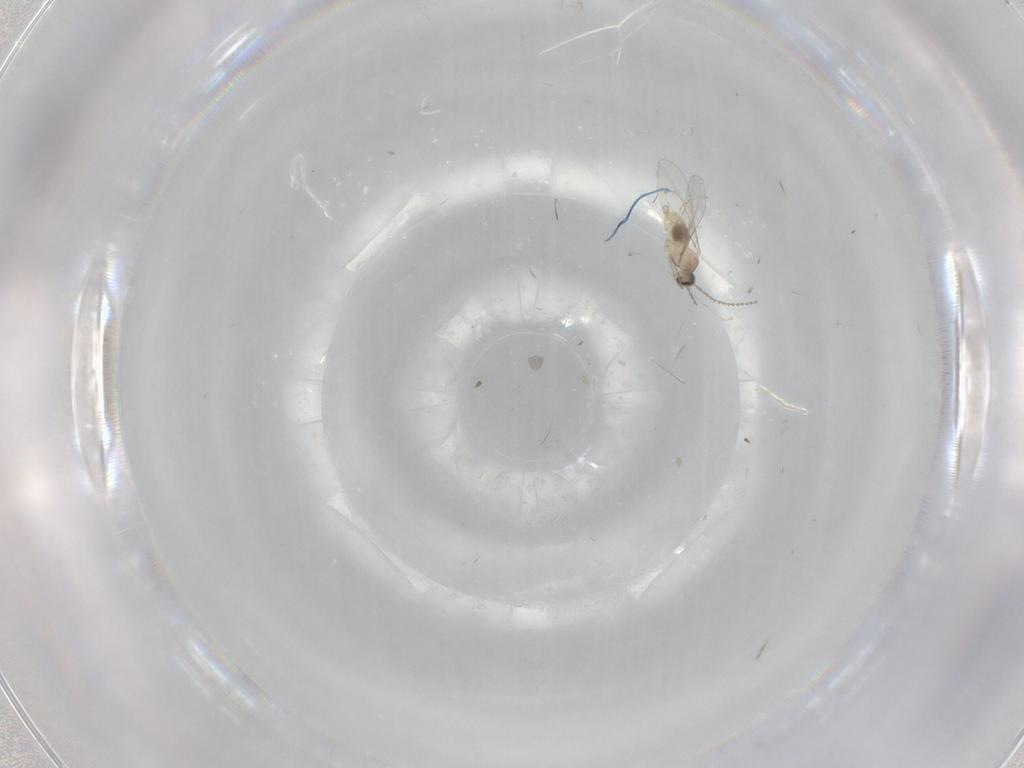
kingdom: Animalia
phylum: Arthropoda
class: Insecta
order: Diptera
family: Cecidomyiidae
